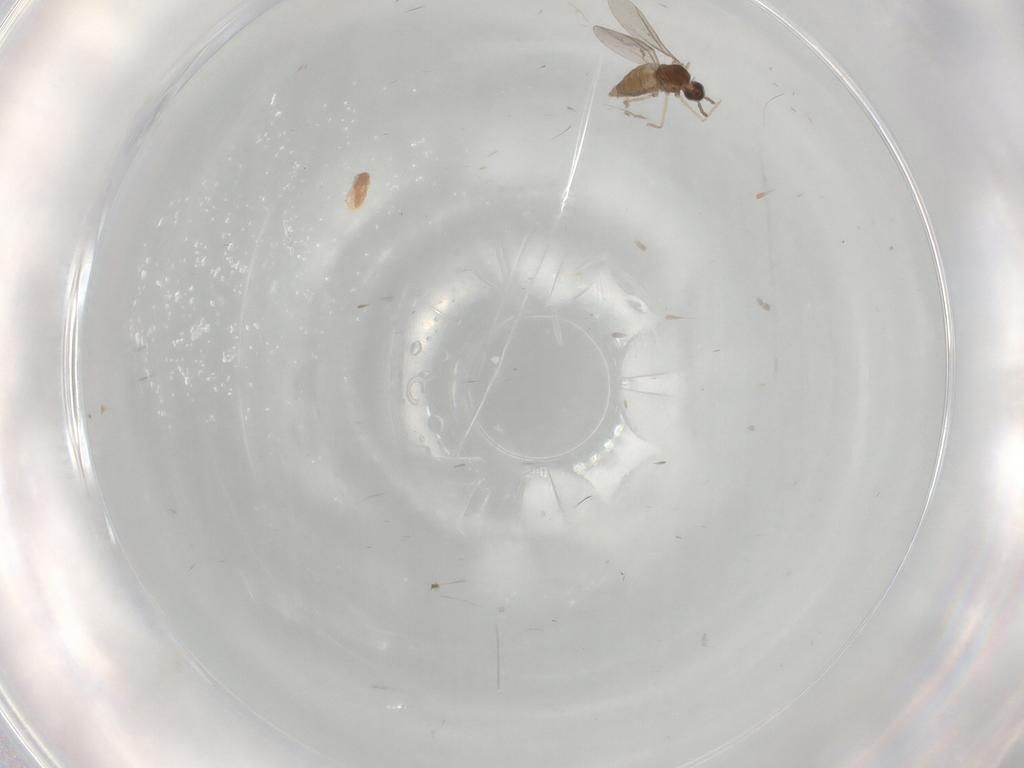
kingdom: Animalia
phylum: Arthropoda
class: Insecta
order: Diptera
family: Cecidomyiidae
